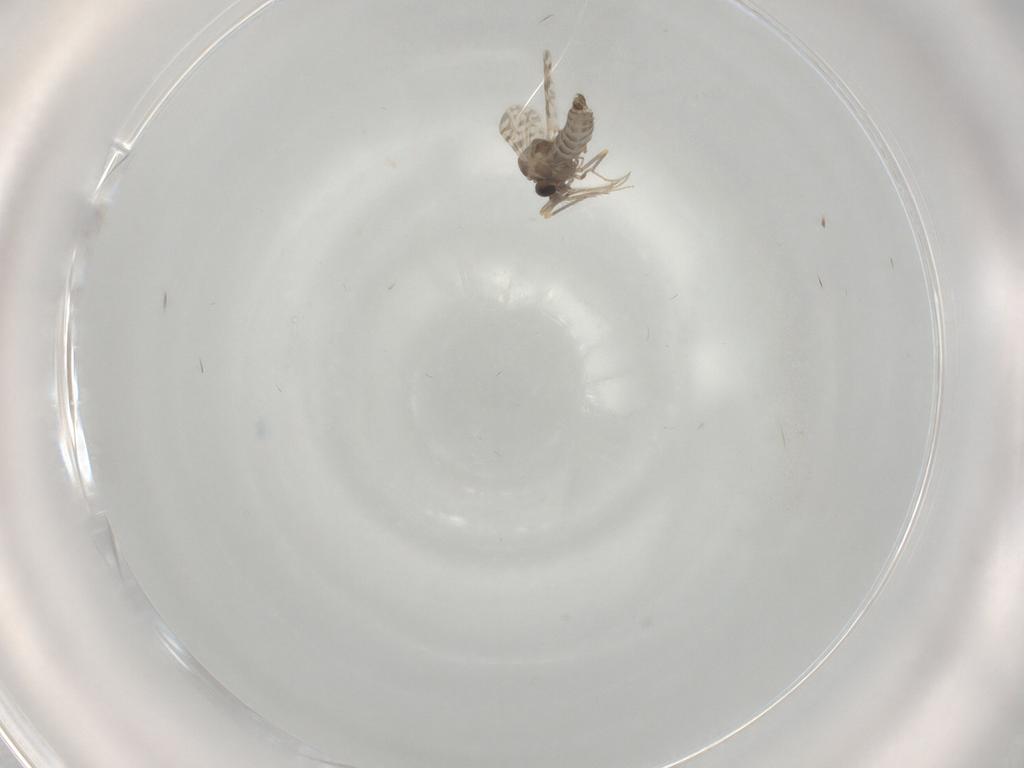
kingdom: Animalia
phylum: Arthropoda
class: Insecta
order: Diptera
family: Ceratopogonidae
